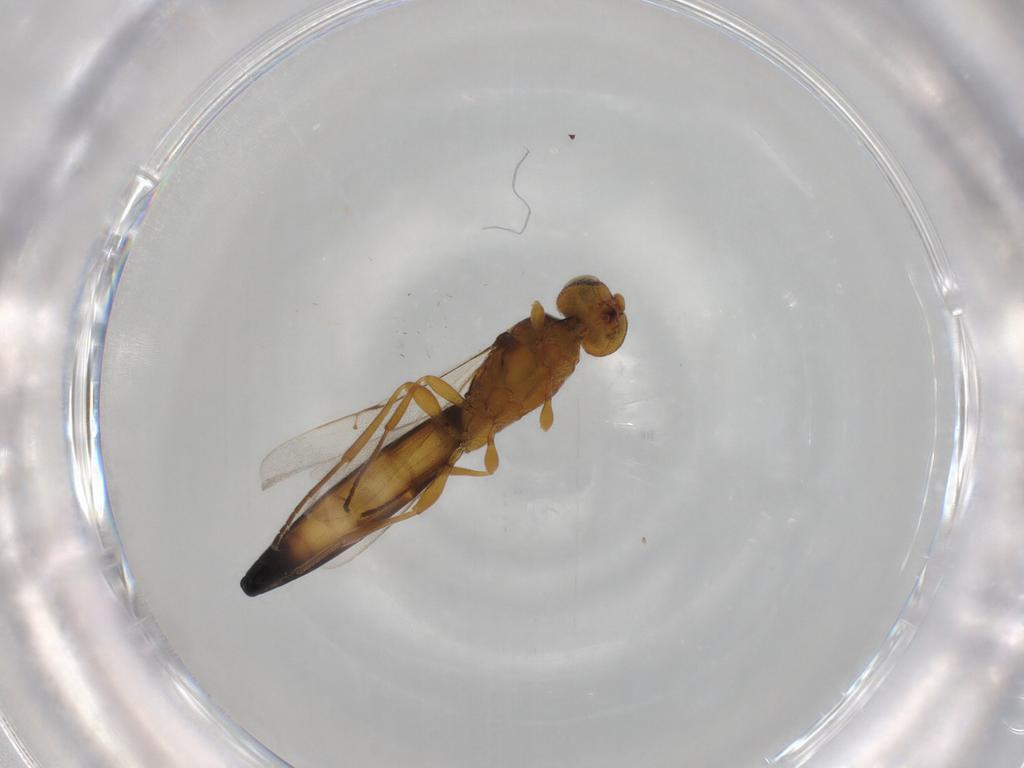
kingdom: Animalia
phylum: Arthropoda
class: Insecta
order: Hymenoptera
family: Scelionidae
